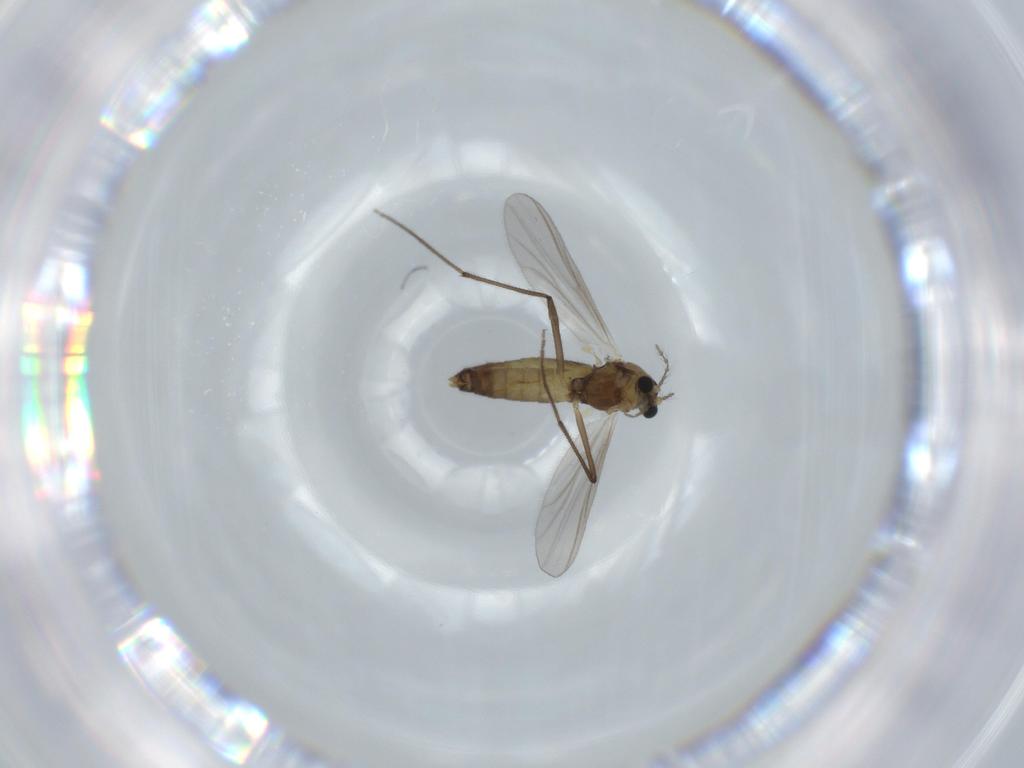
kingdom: Animalia
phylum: Arthropoda
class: Insecta
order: Diptera
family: Chironomidae
